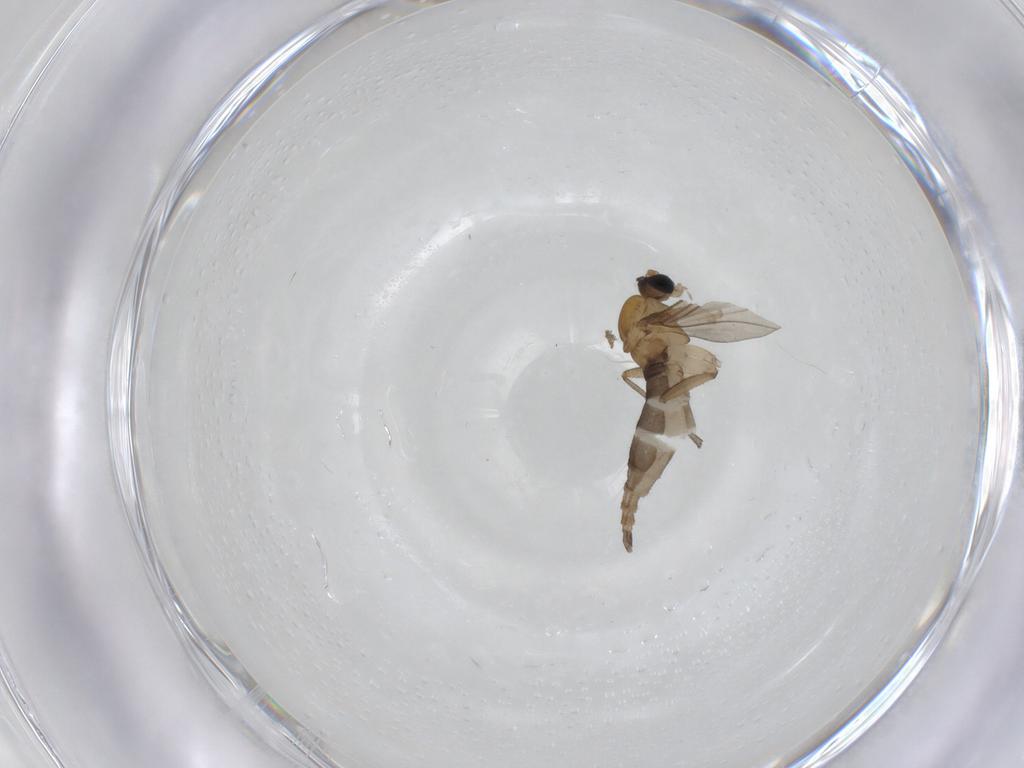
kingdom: Animalia
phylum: Arthropoda
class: Insecta
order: Diptera
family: Sciaridae
